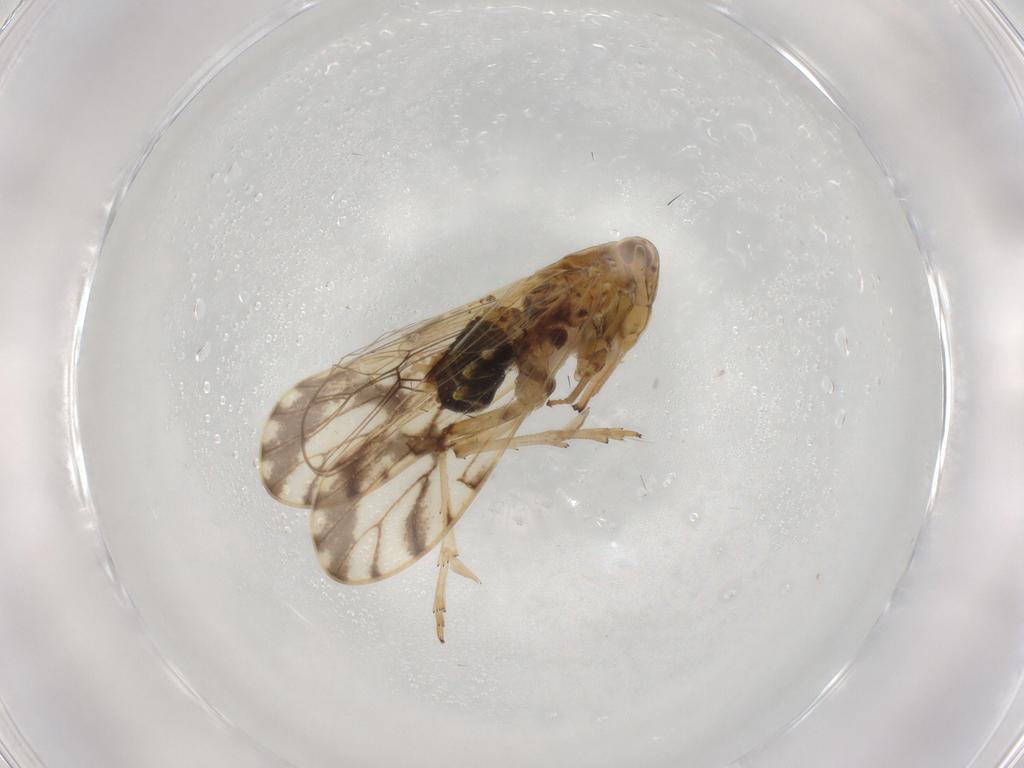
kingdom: Animalia
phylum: Arthropoda
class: Insecta
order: Hemiptera
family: Delphacidae
